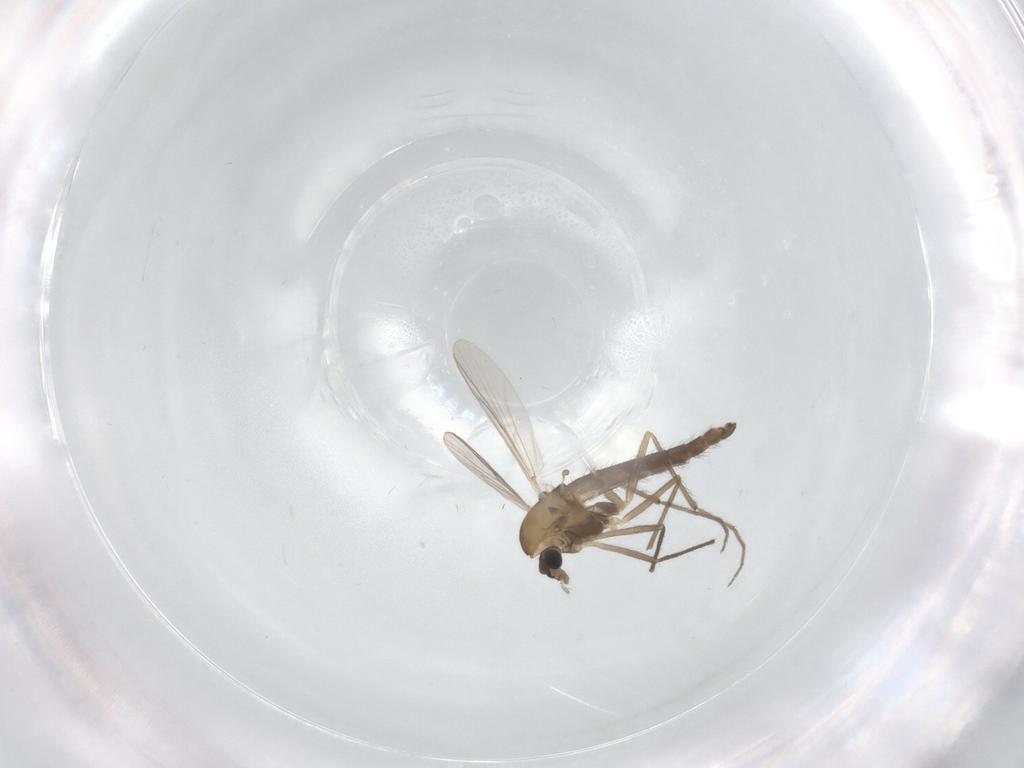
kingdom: Animalia
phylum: Arthropoda
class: Insecta
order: Diptera
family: Chironomidae
